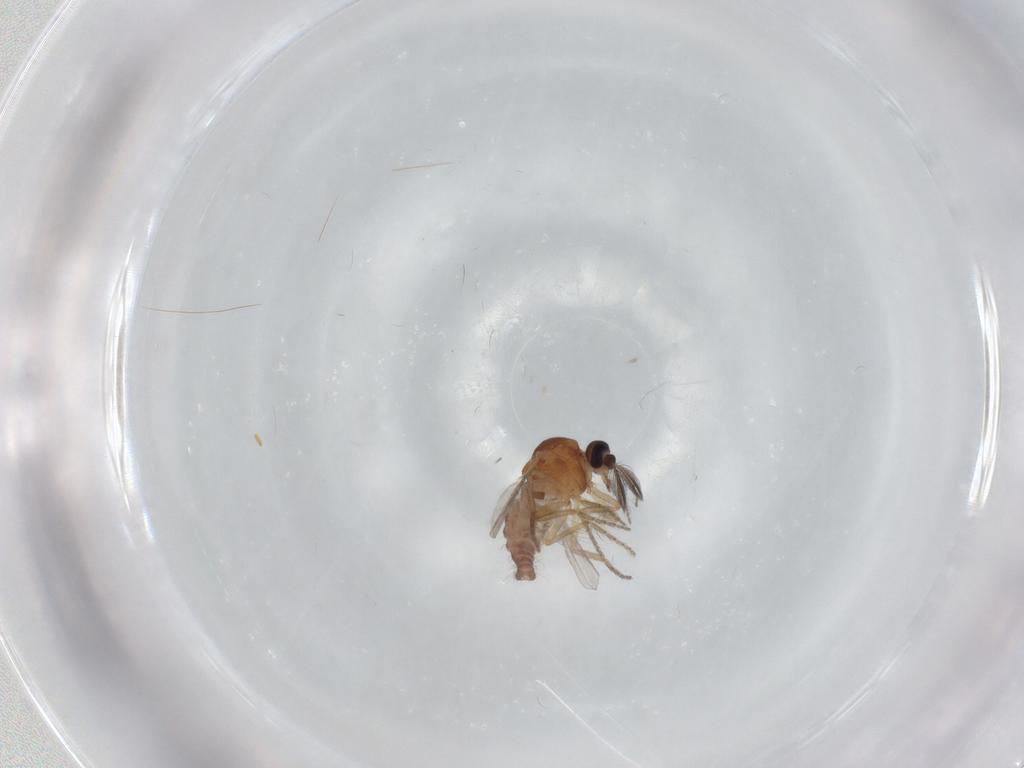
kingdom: Animalia
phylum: Arthropoda
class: Insecta
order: Diptera
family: Ceratopogonidae
